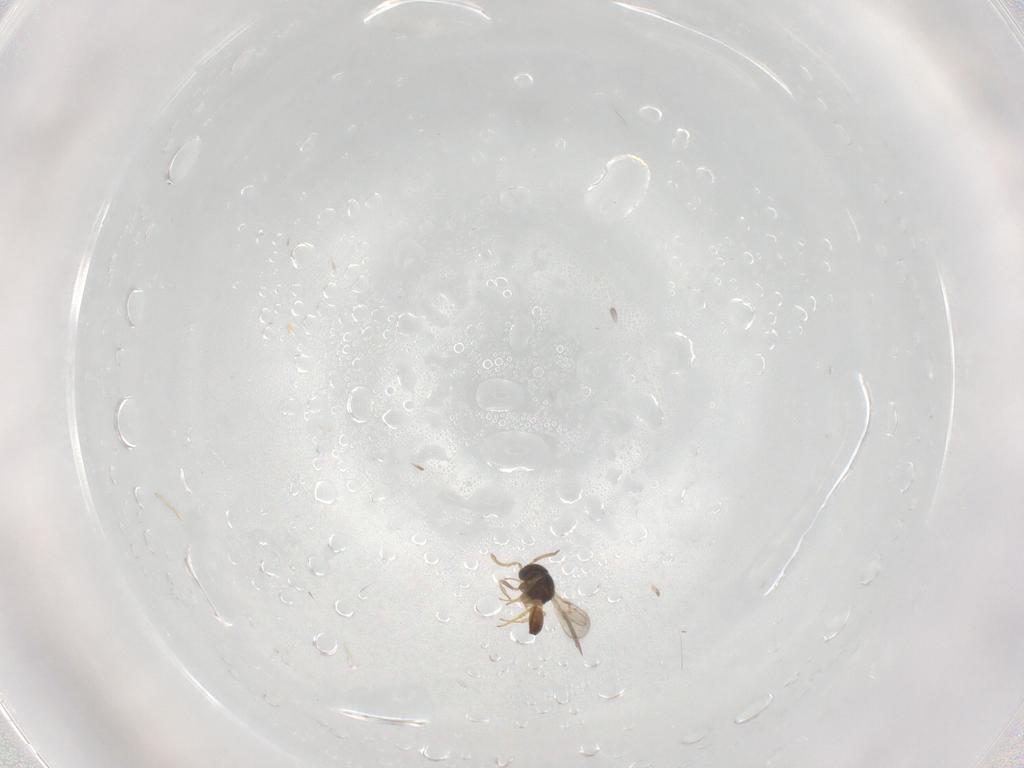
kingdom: Animalia
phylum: Arthropoda
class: Insecta
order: Hymenoptera
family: Scelionidae
